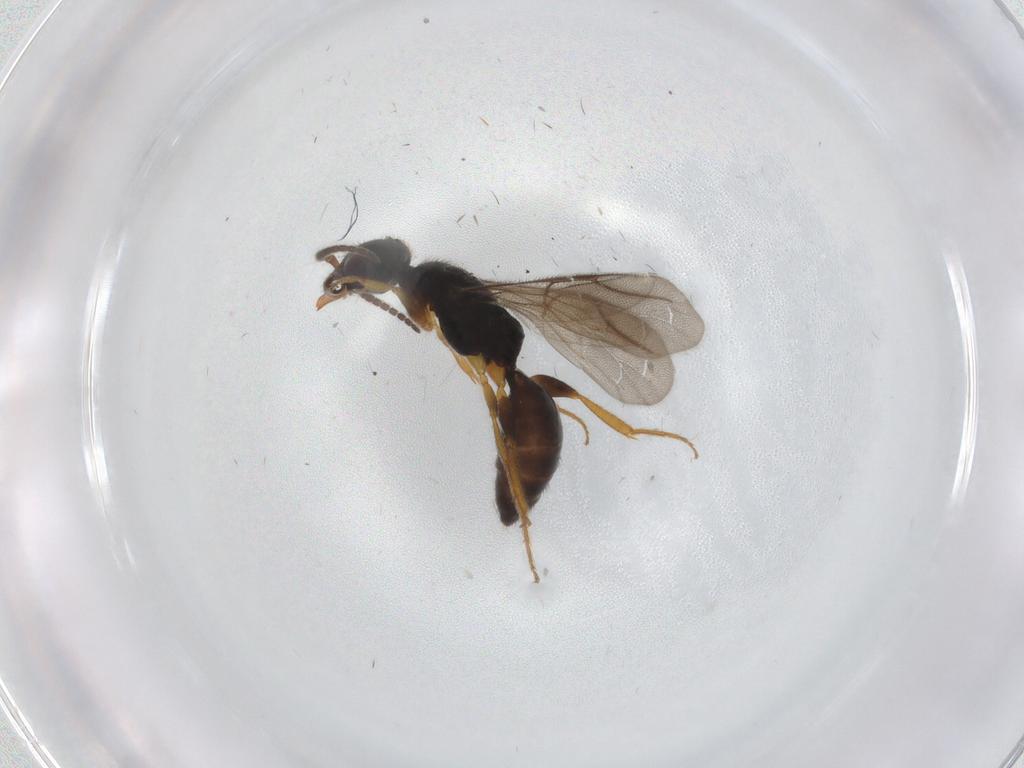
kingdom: Animalia
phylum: Arthropoda
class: Insecta
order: Hymenoptera
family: Bethylidae
